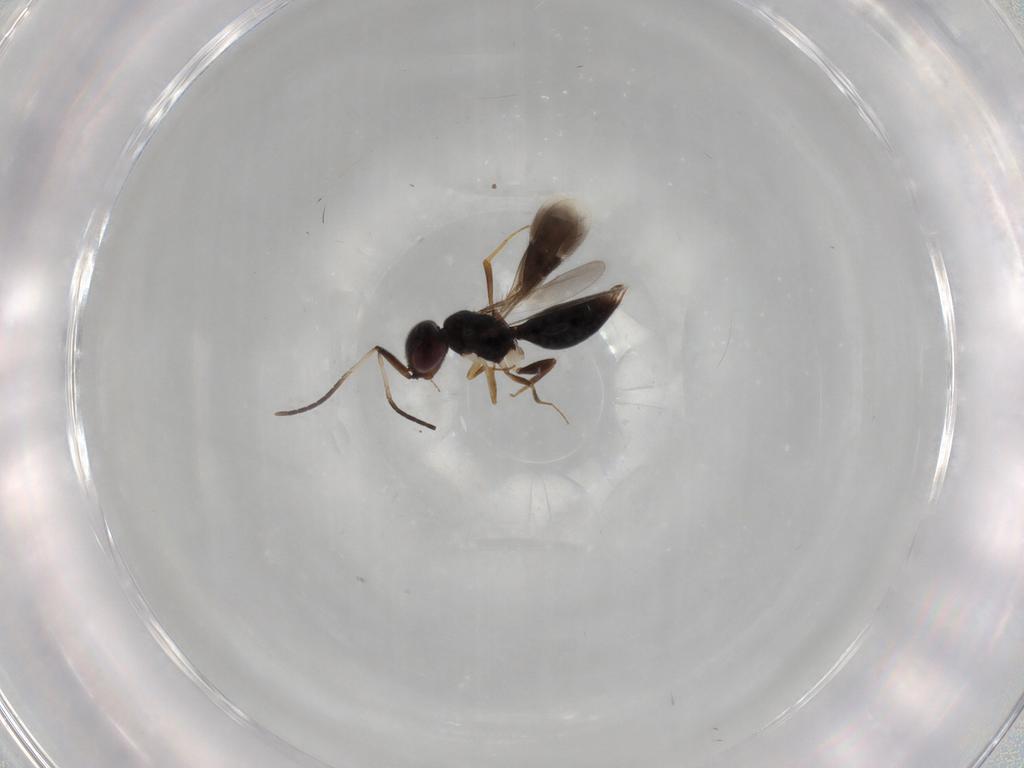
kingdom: Animalia
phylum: Arthropoda
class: Insecta
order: Hymenoptera
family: Megaspilidae
